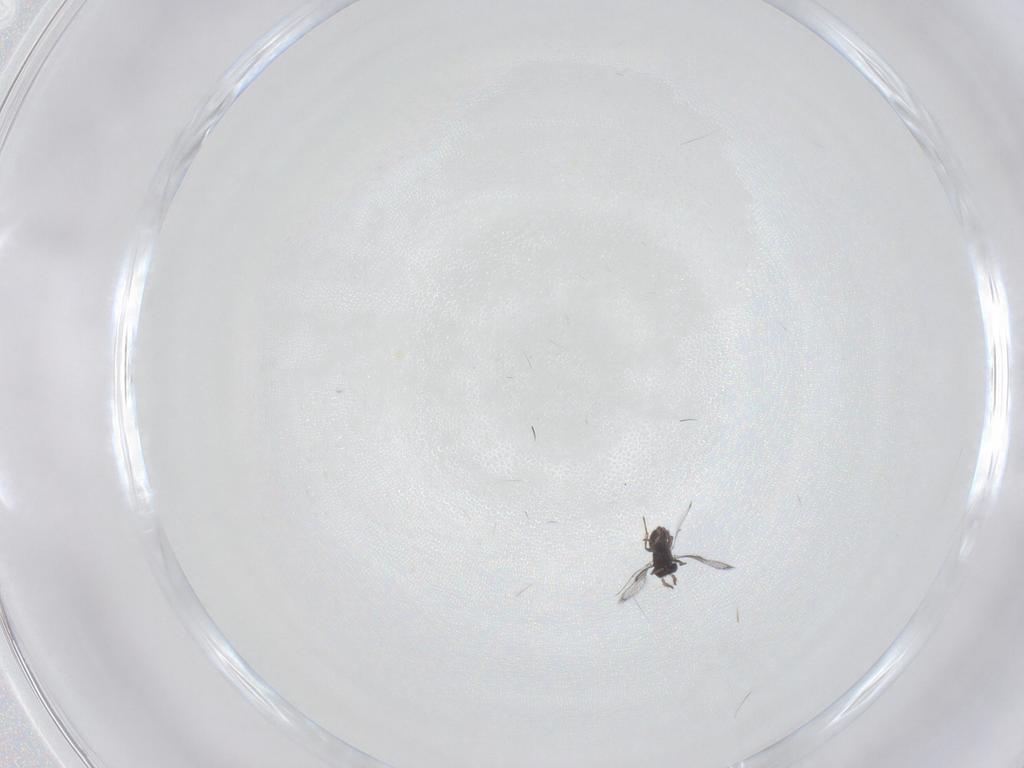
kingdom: Animalia
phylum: Arthropoda
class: Insecta
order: Hymenoptera
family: Trichogrammatidae
